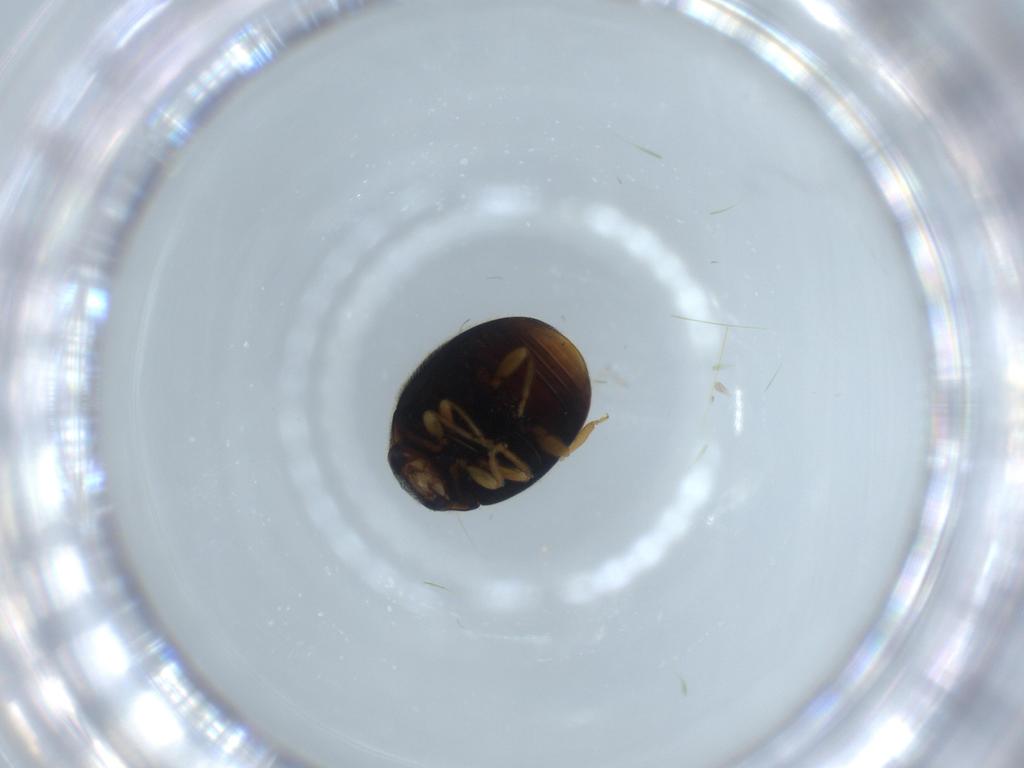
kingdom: Animalia
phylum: Arthropoda
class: Insecta
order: Coleoptera
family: Coccinellidae
